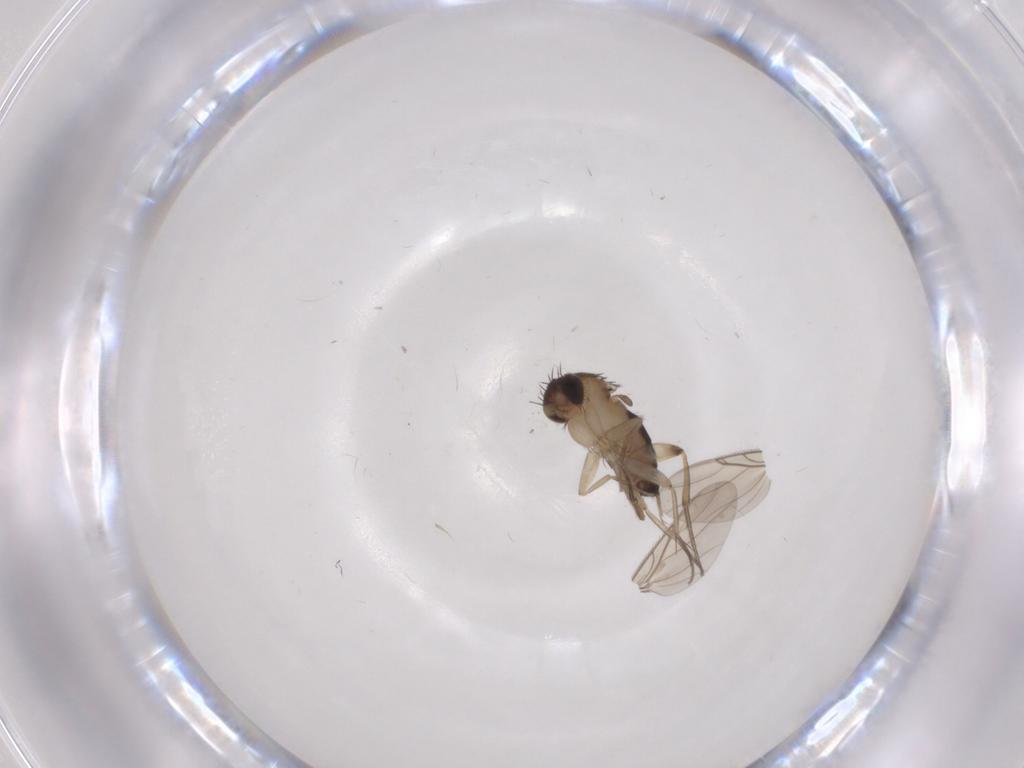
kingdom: Animalia
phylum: Arthropoda
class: Insecta
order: Diptera
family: Phoridae
